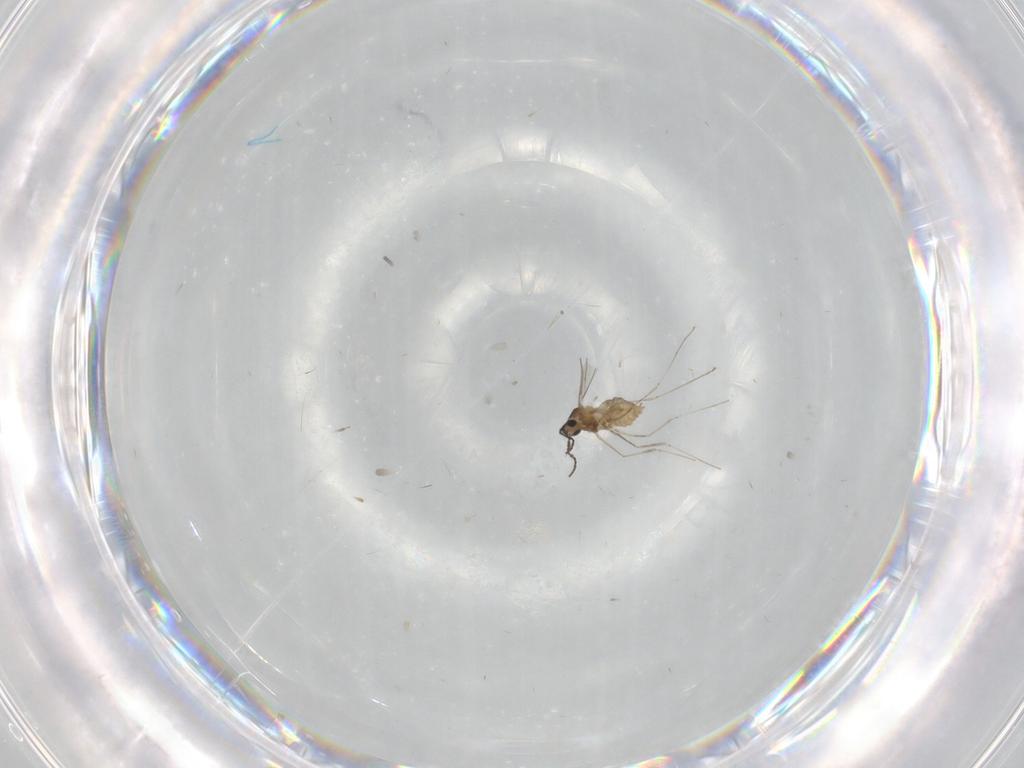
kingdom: Animalia
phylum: Arthropoda
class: Insecta
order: Diptera
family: Cecidomyiidae
